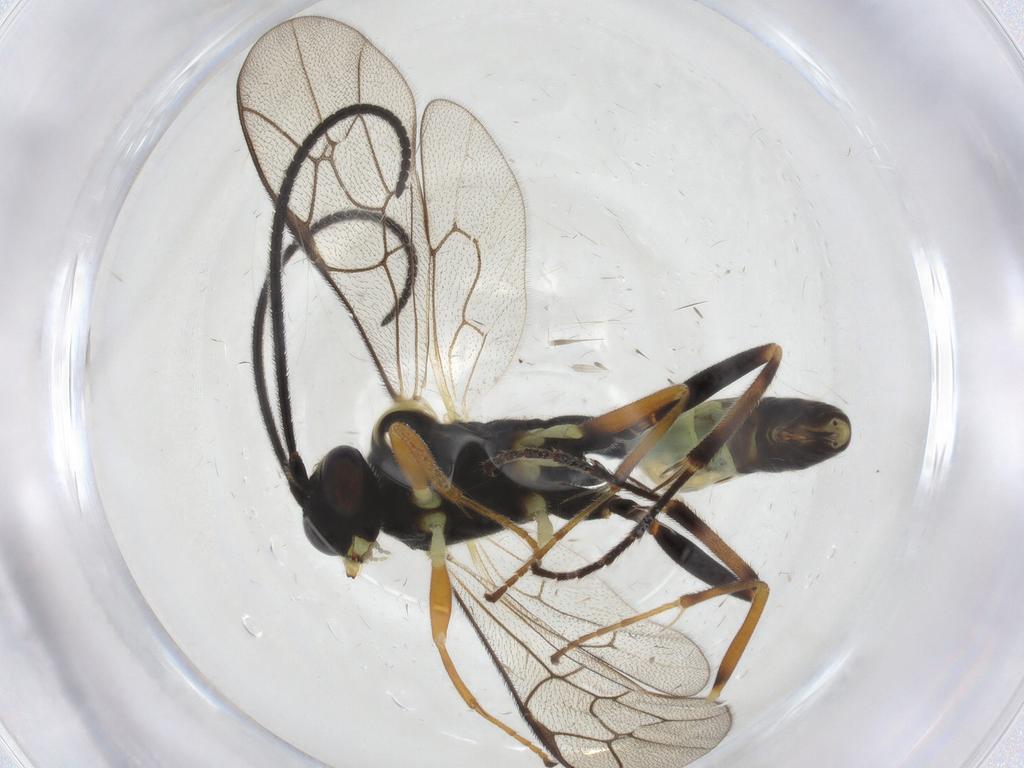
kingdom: Animalia
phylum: Arthropoda
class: Insecta
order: Hymenoptera
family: Ichneumonidae
